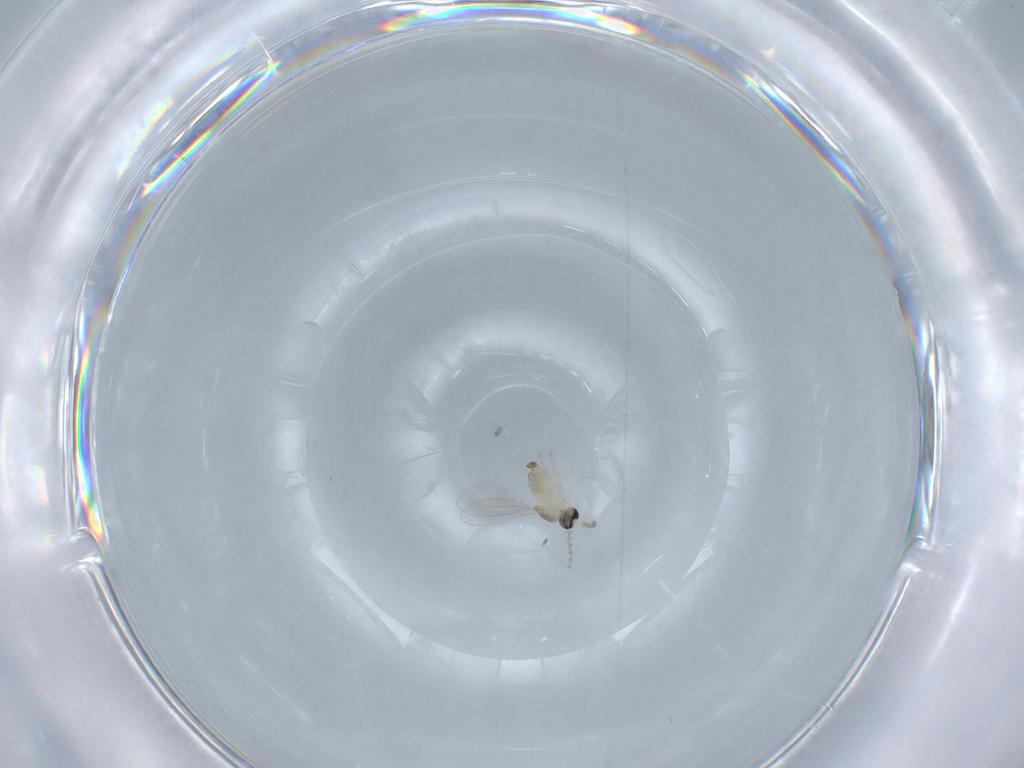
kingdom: Animalia
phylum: Arthropoda
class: Insecta
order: Diptera
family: Cecidomyiidae
